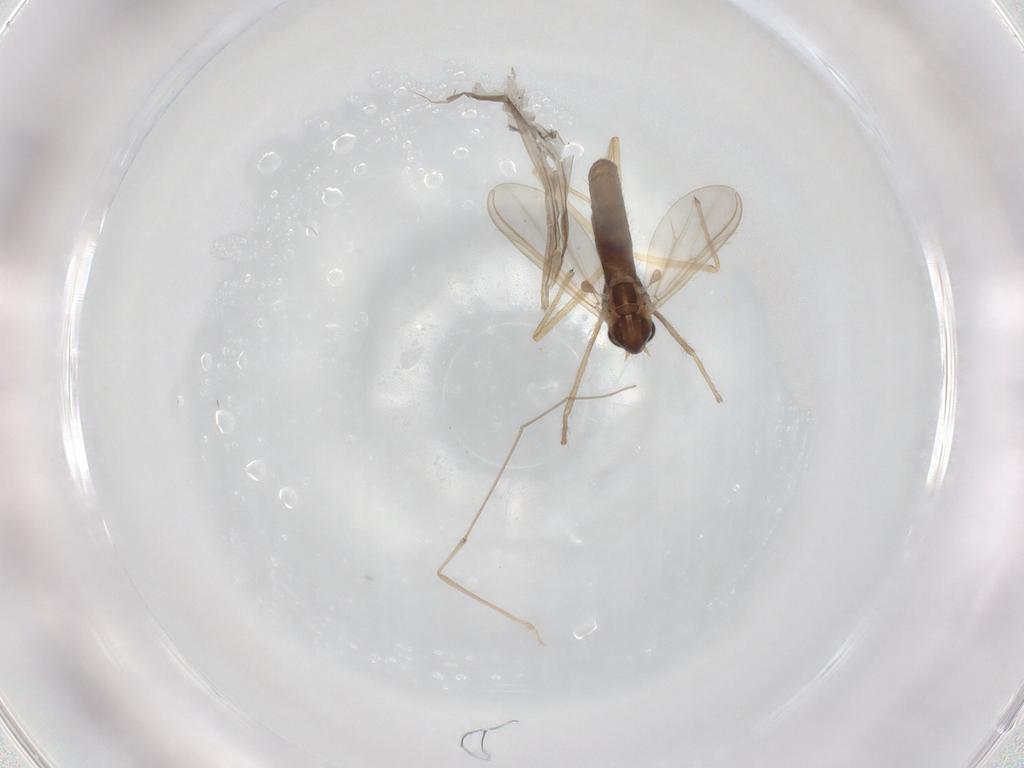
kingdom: Animalia
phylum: Arthropoda
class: Insecta
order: Diptera
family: Chironomidae
